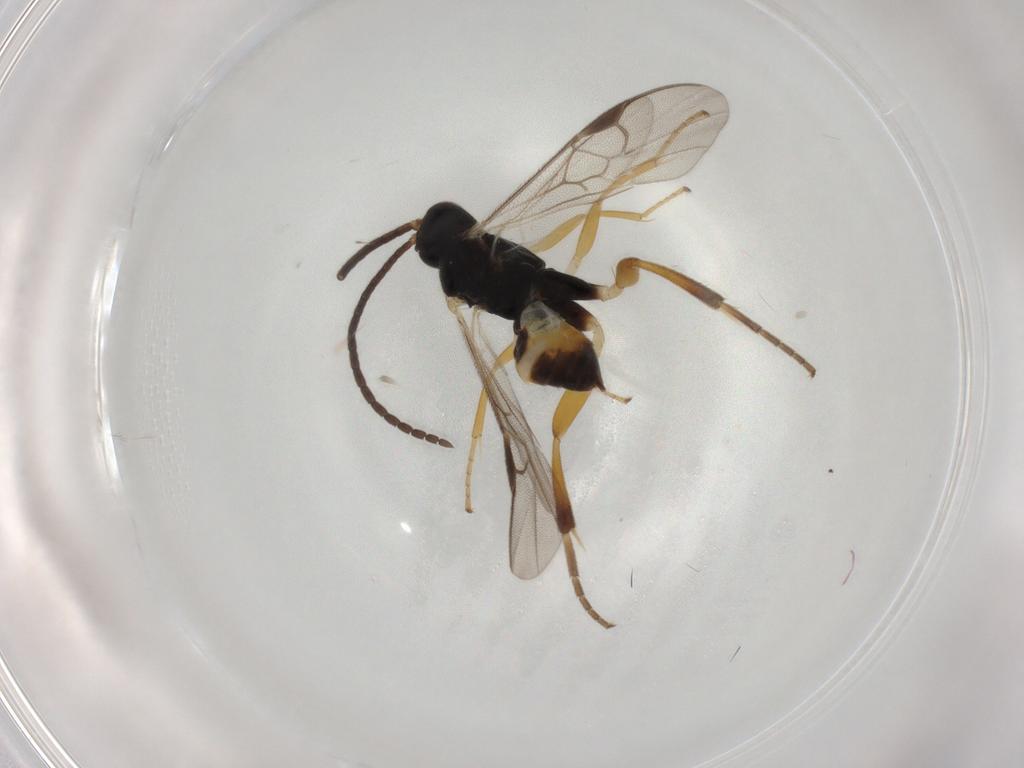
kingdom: Animalia
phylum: Arthropoda
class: Insecta
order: Hymenoptera
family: Braconidae
